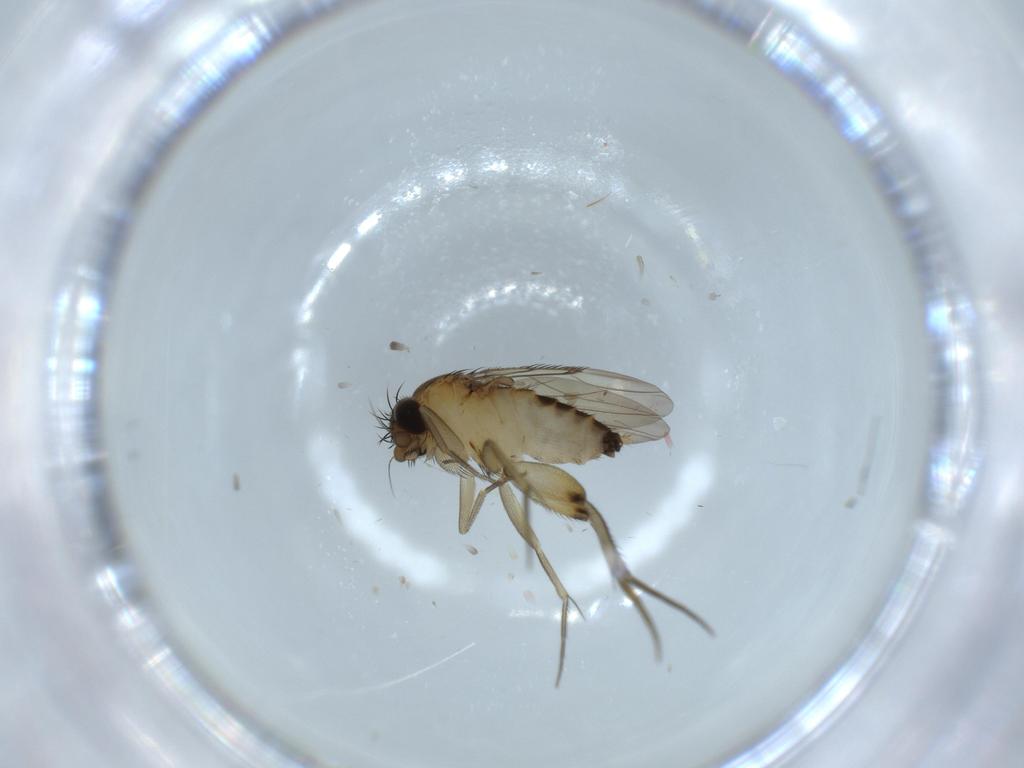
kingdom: Animalia
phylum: Arthropoda
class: Insecta
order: Diptera
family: Phoridae
